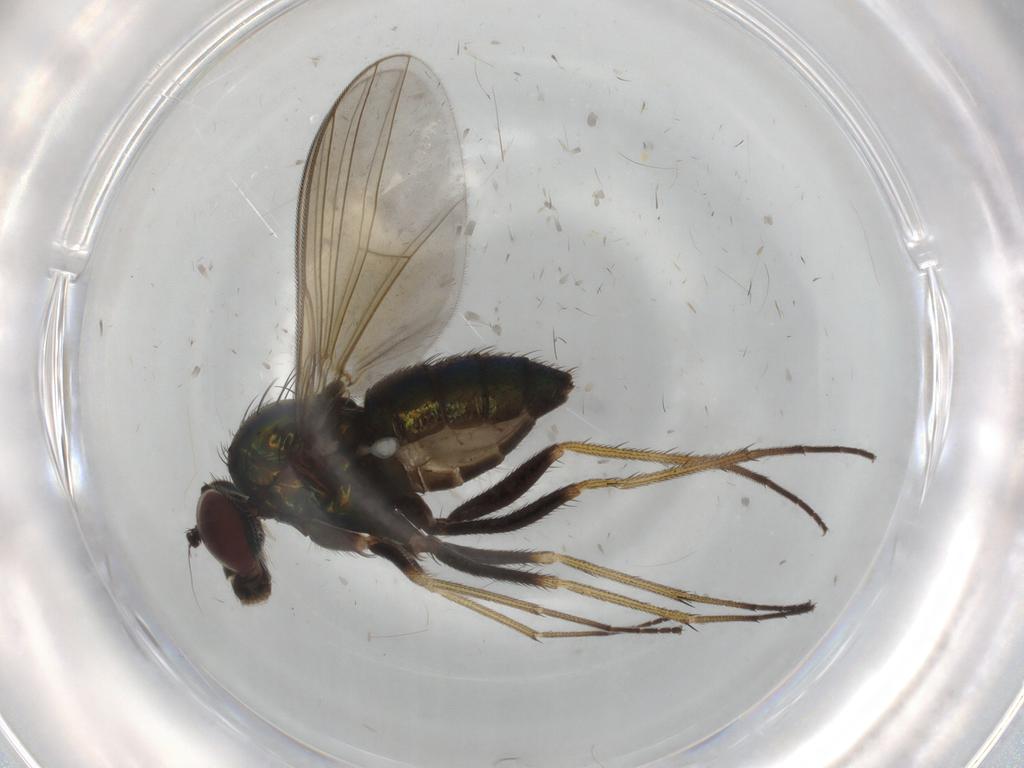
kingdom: Animalia
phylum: Arthropoda
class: Insecta
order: Diptera
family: Dolichopodidae
